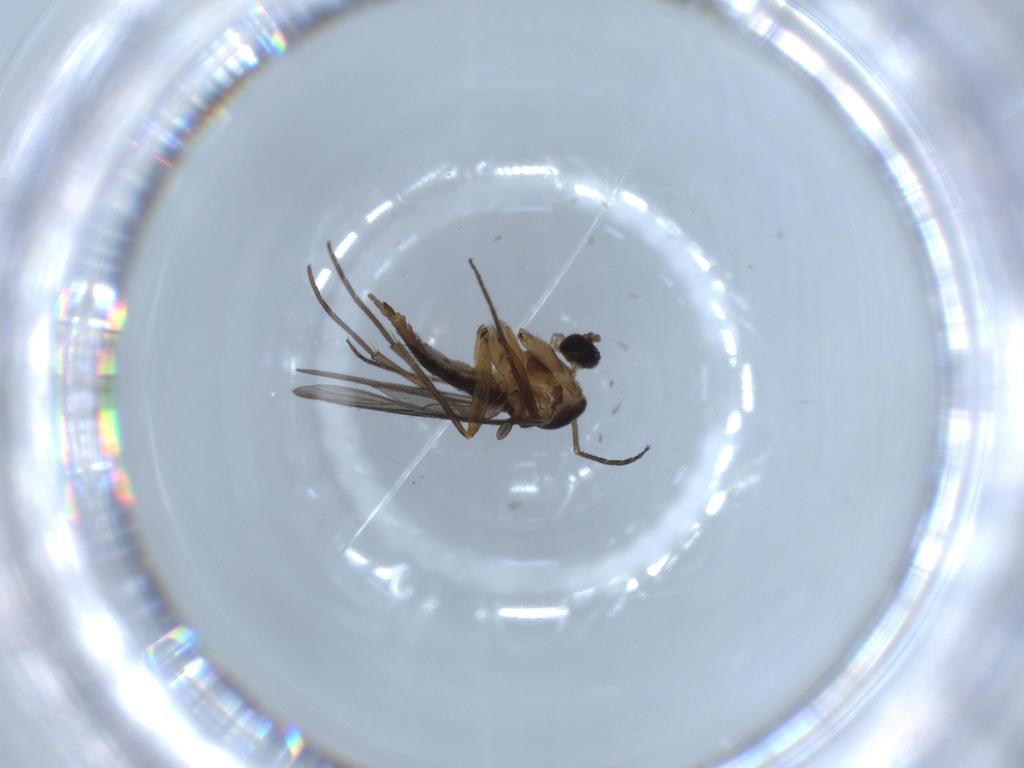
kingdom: Animalia
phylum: Arthropoda
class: Insecta
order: Diptera
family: Sciaridae
